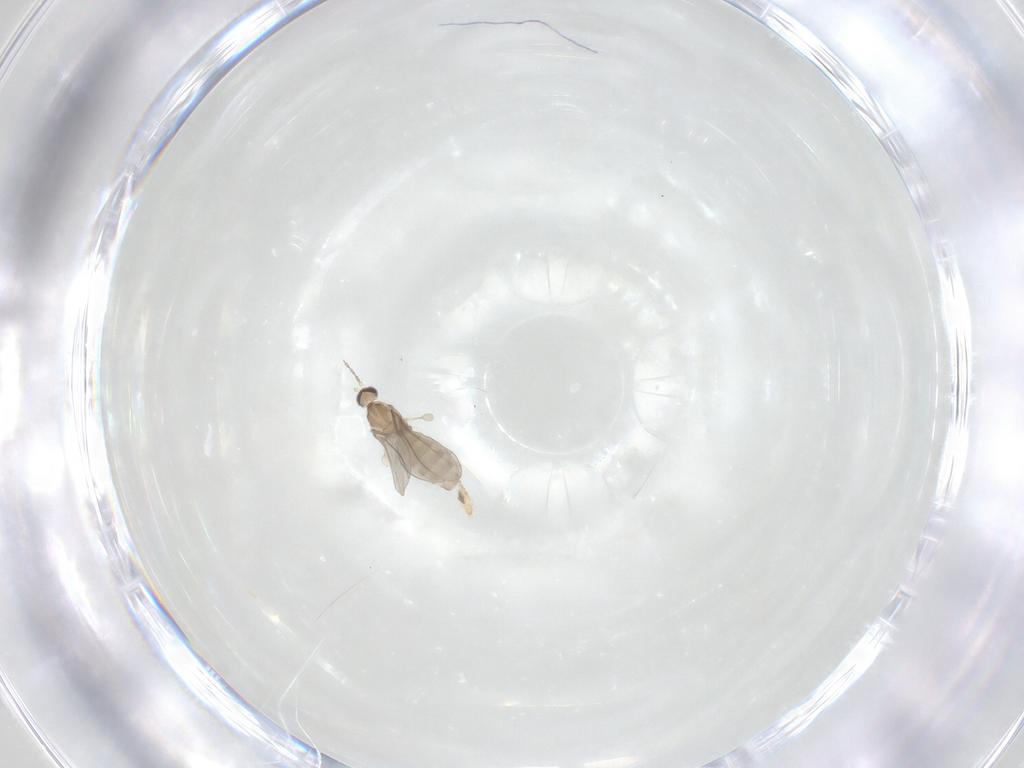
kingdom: Animalia
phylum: Arthropoda
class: Insecta
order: Diptera
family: Cecidomyiidae
